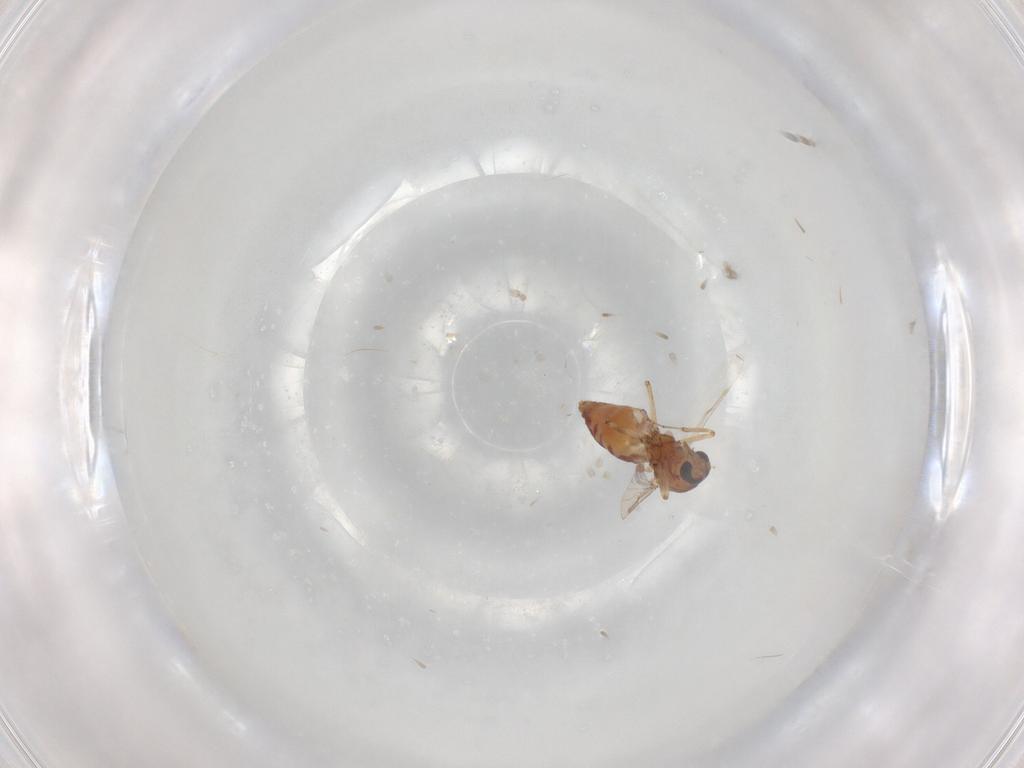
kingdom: Animalia
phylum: Arthropoda
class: Insecta
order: Diptera
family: Ceratopogonidae
